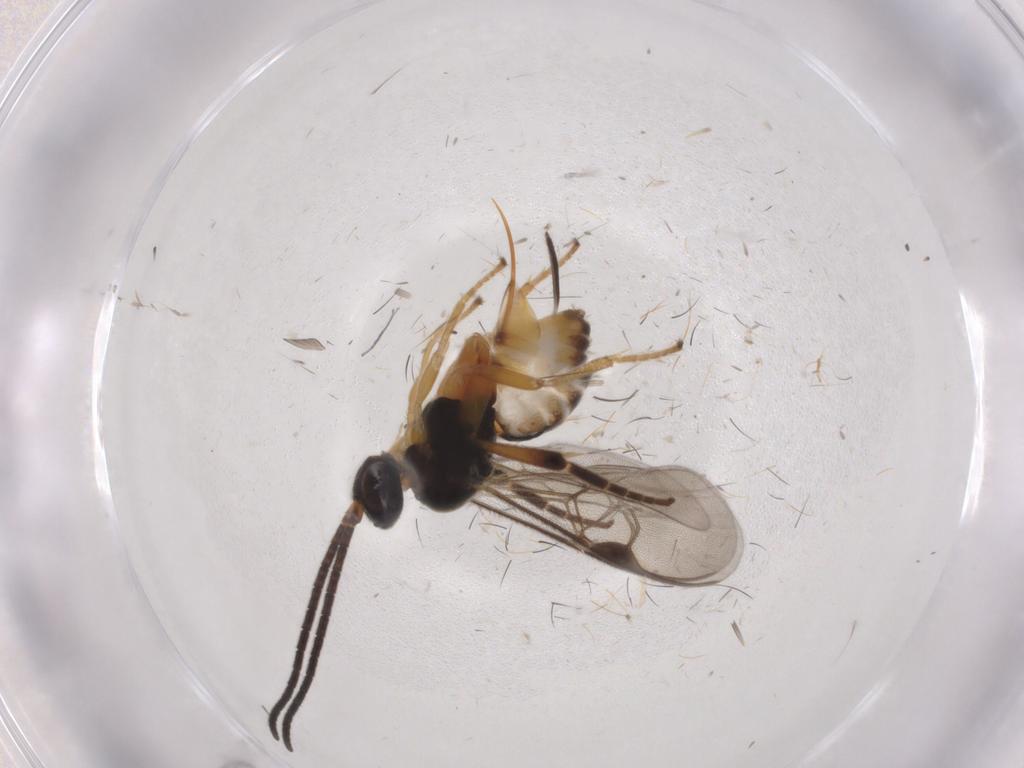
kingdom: Animalia
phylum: Arthropoda
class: Insecta
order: Hymenoptera
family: Braconidae
